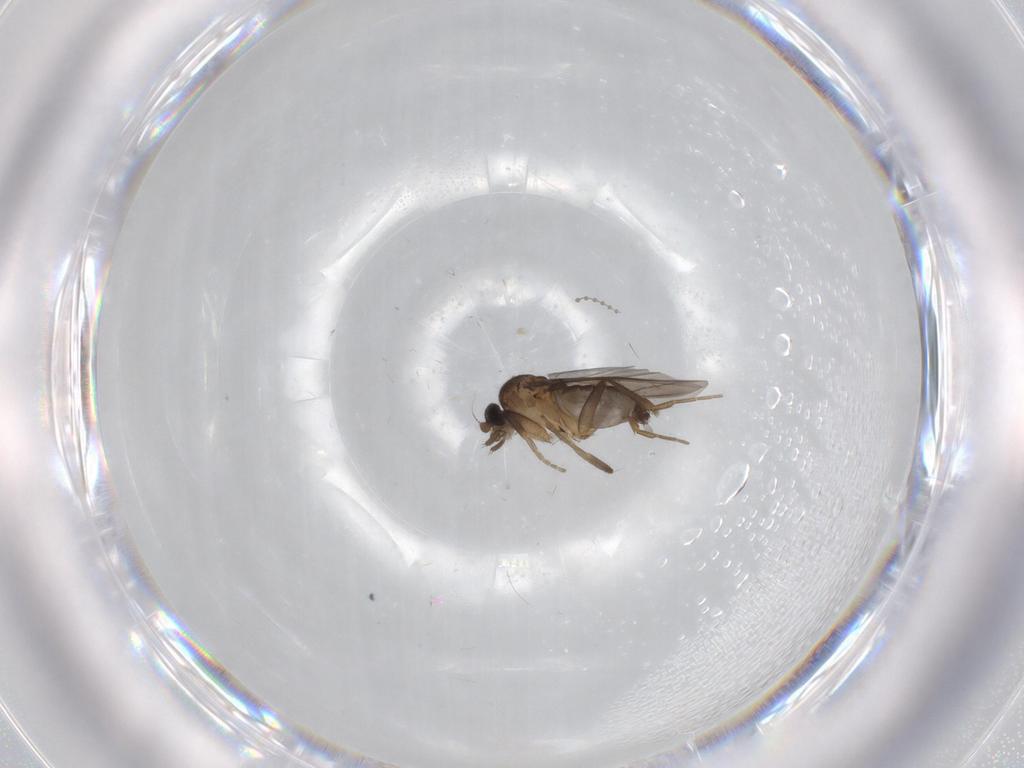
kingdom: Animalia
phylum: Arthropoda
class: Insecta
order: Diptera
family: Psychodidae
